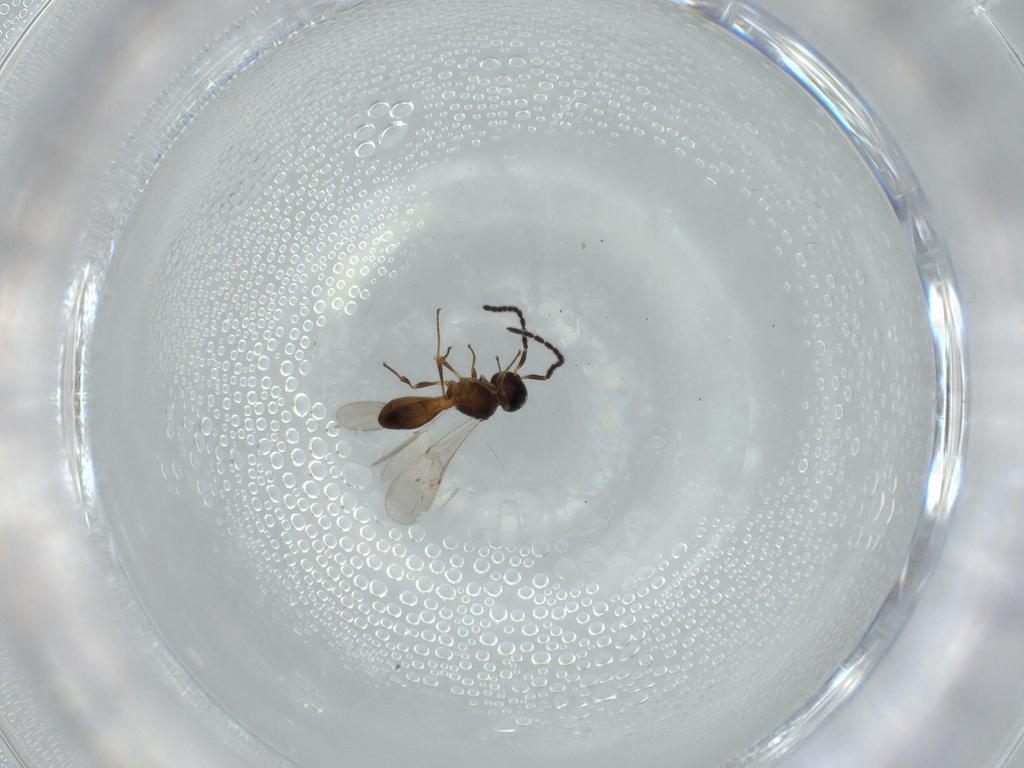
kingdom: Animalia
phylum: Arthropoda
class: Insecta
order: Hymenoptera
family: Scelionidae
